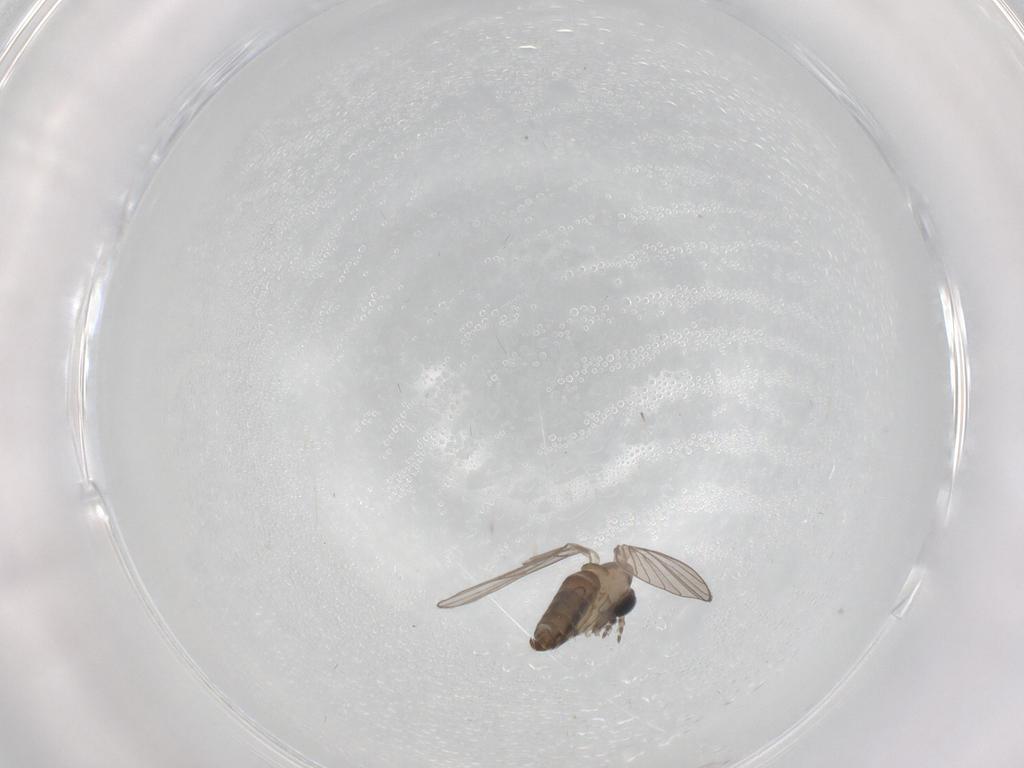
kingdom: Animalia
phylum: Arthropoda
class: Insecta
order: Diptera
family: Psychodidae
